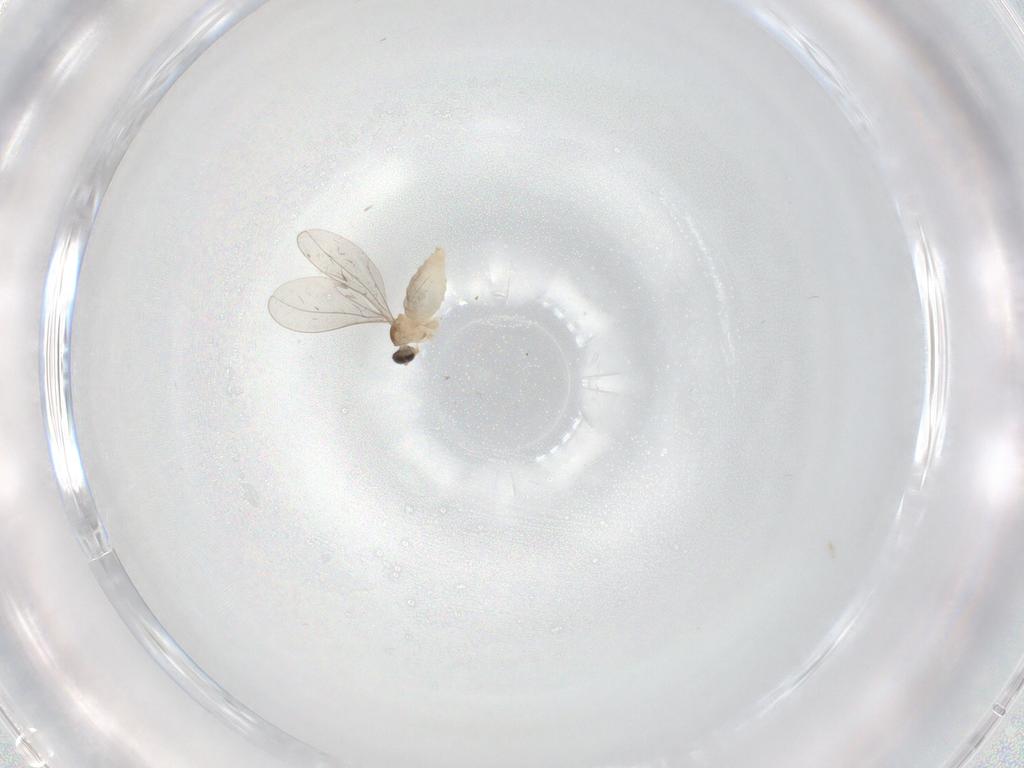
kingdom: Animalia
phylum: Arthropoda
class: Insecta
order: Diptera
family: Cecidomyiidae
